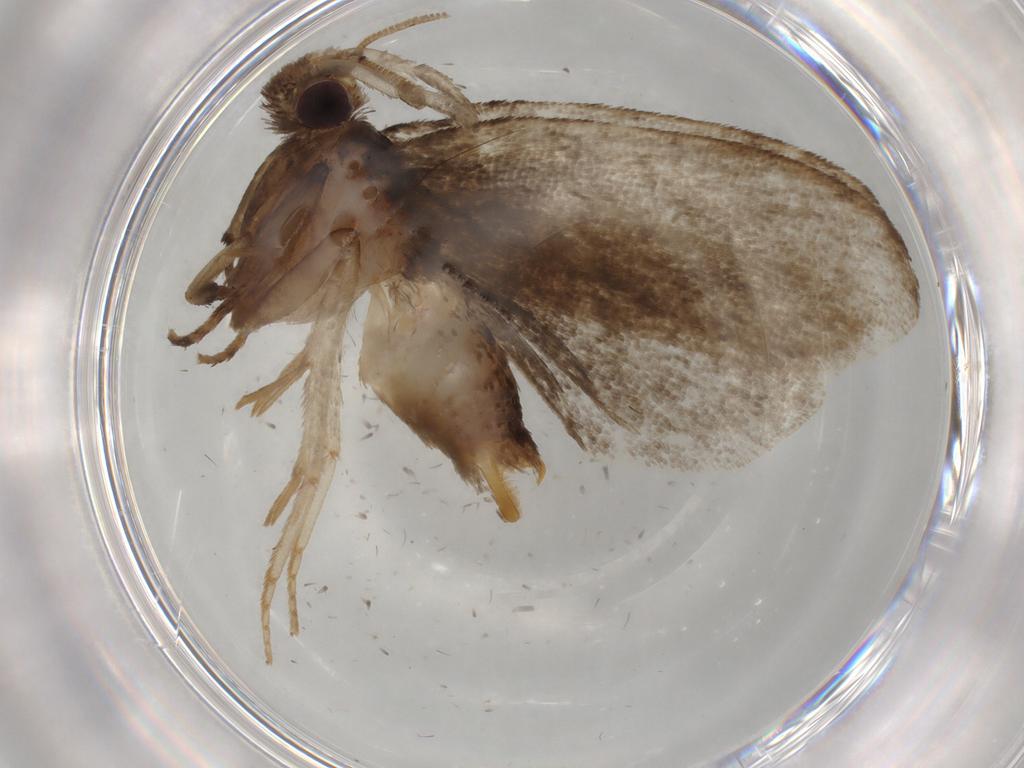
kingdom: Animalia
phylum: Arthropoda
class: Insecta
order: Lepidoptera
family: Tineidae
